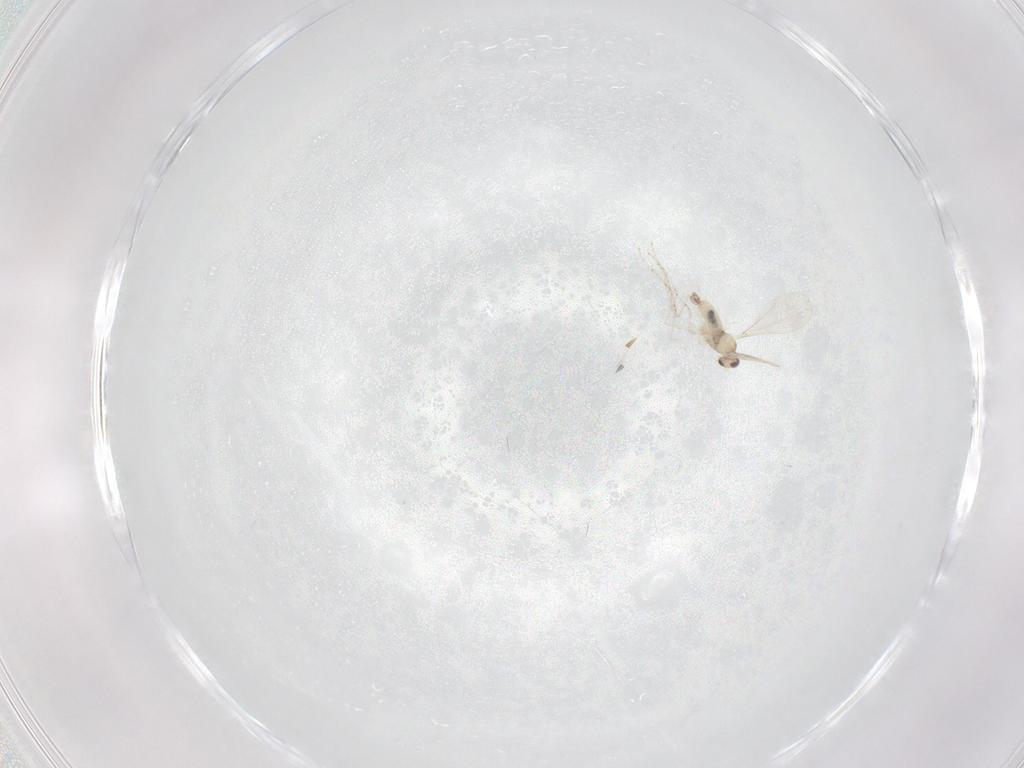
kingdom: Animalia
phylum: Arthropoda
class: Insecta
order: Diptera
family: Cecidomyiidae
